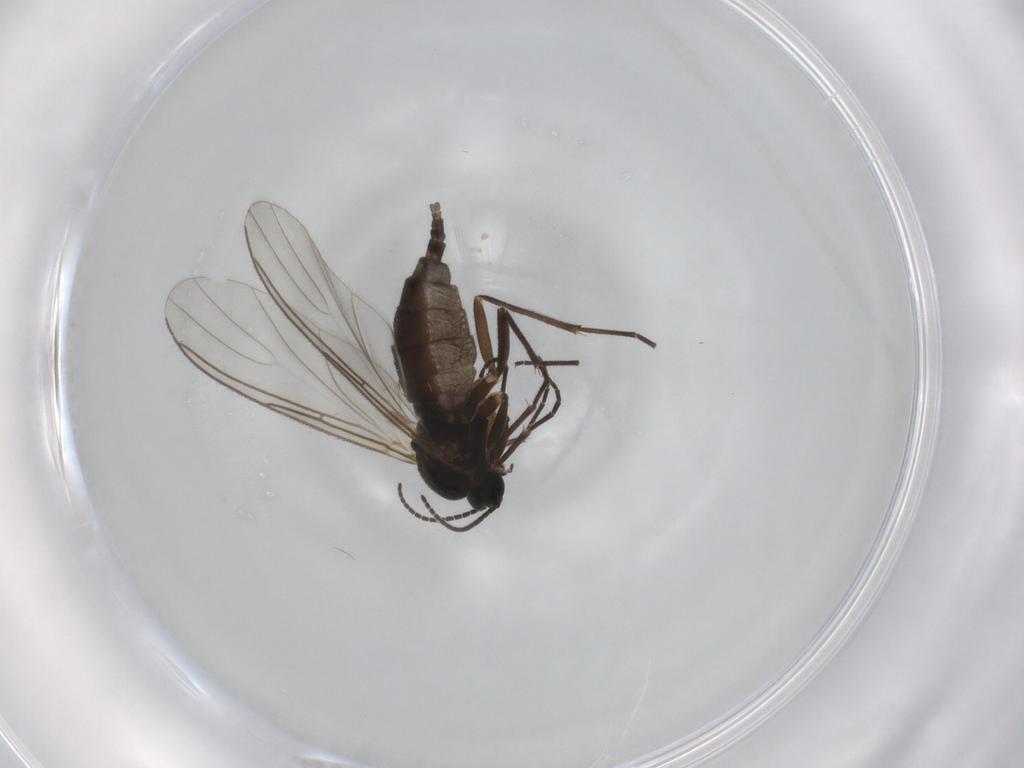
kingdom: Animalia
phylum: Arthropoda
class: Insecta
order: Diptera
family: Sciaridae
